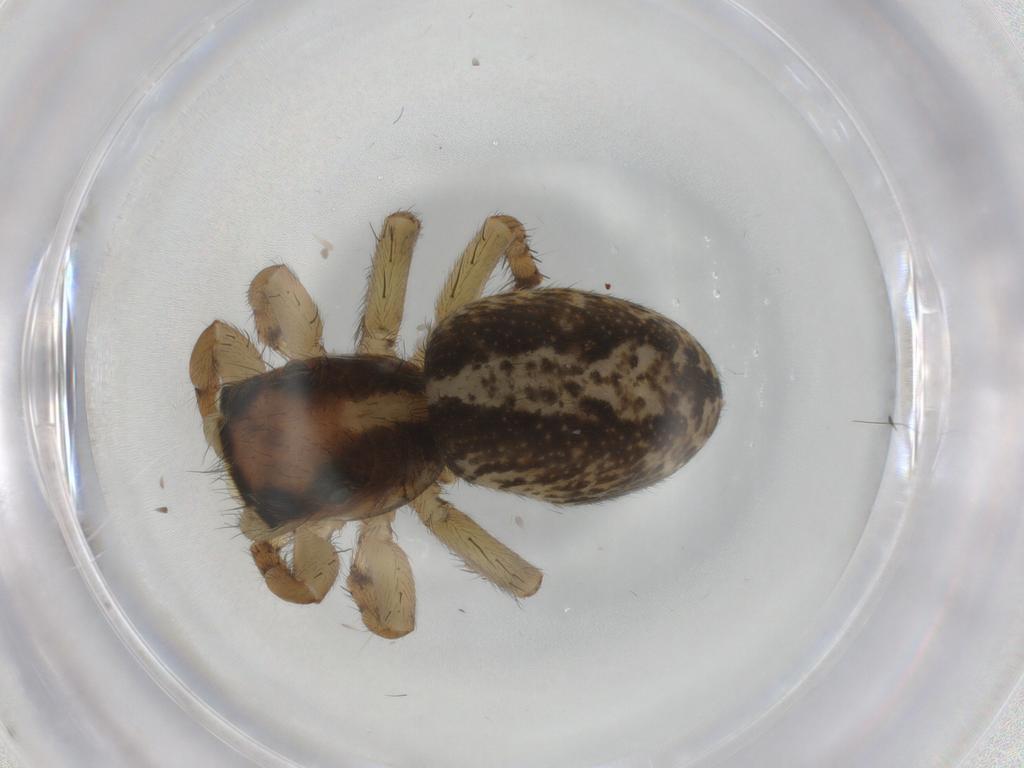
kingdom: Animalia
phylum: Arthropoda
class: Arachnida
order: Araneae
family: Salticidae
